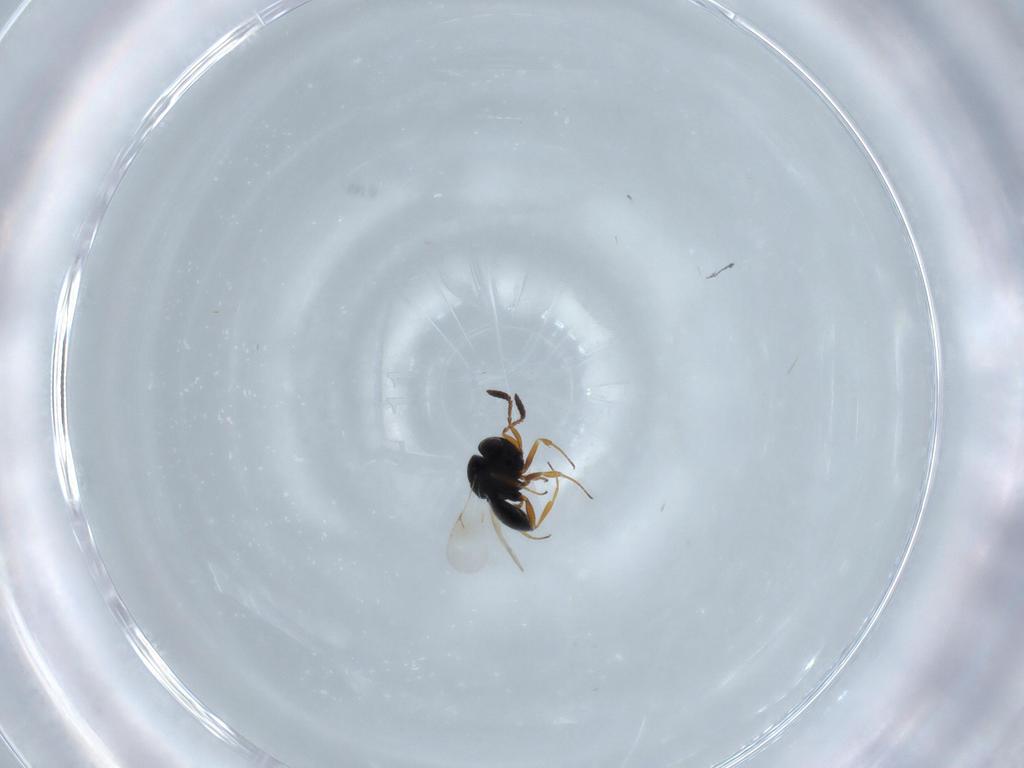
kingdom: Animalia
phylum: Arthropoda
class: Insecta
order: Hymenoptera
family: Scelionidae
